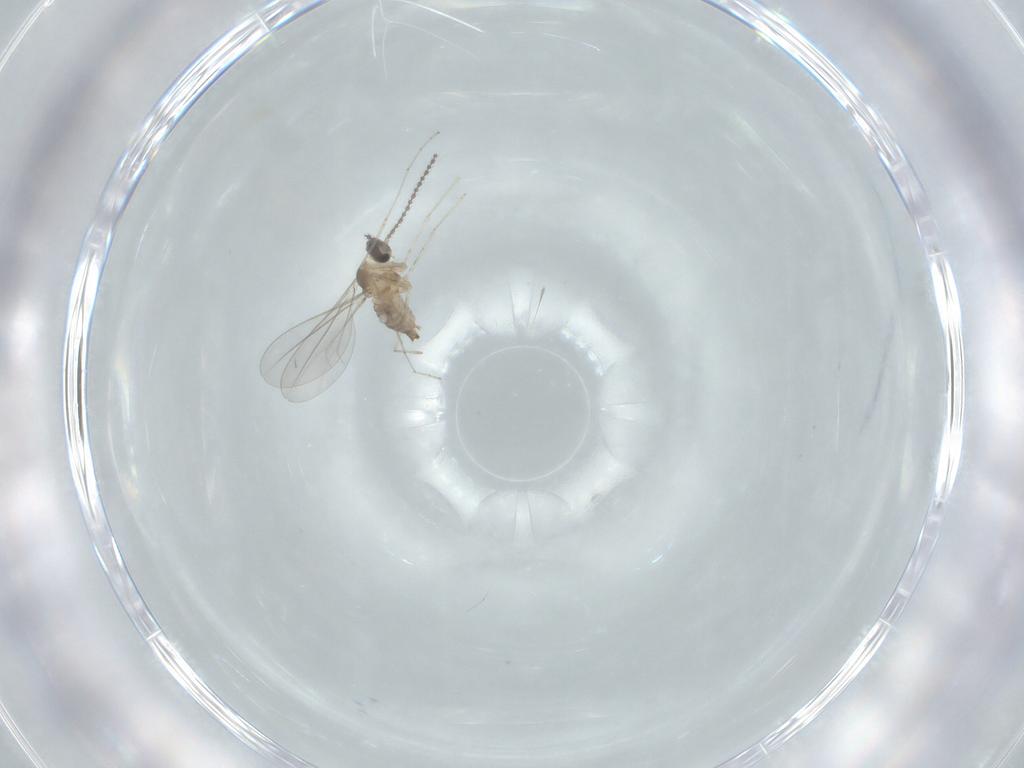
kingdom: Animalia
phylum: Arthropoda
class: Insecta
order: Diptera
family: Cecidomyiidae
